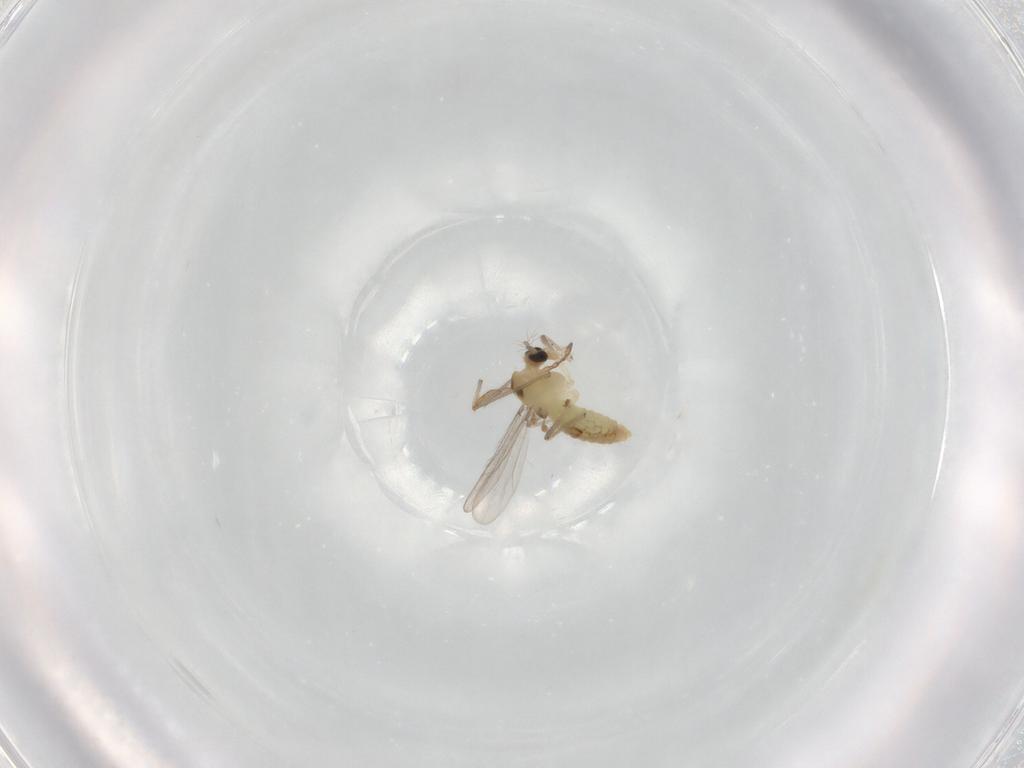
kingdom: Animalia
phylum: Arthropoda
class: Insecta
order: Diptera
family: Chironomidae
